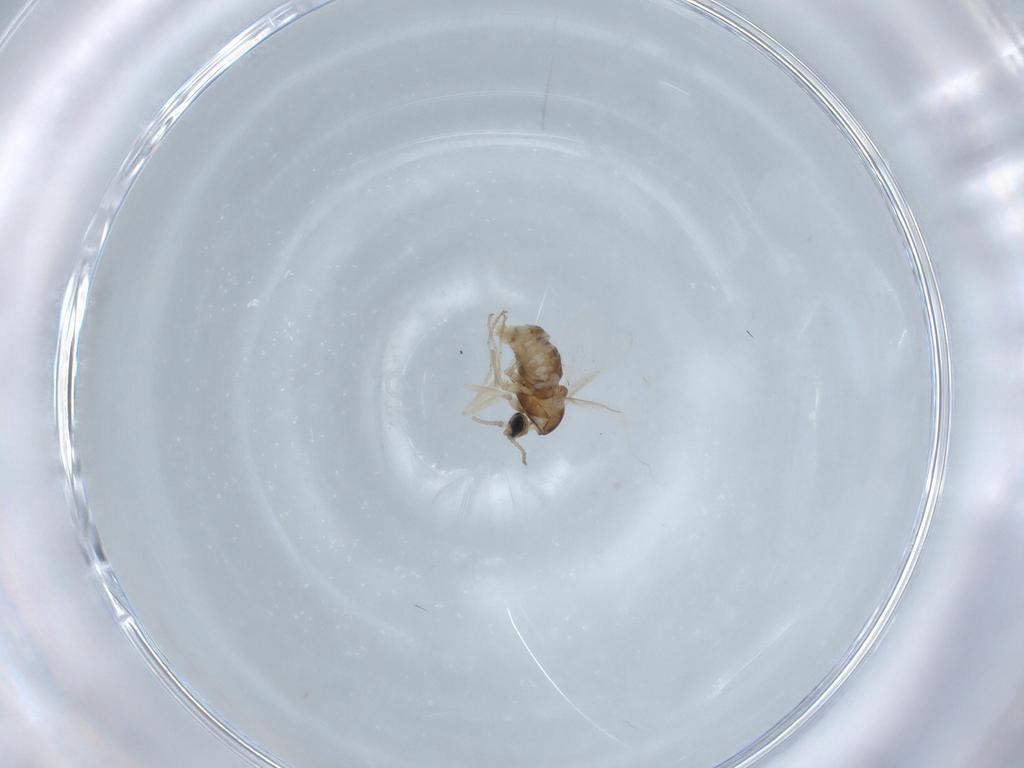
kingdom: Animalia
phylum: Arthropoda
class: Insecta
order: Diptera
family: Cecidomyiidae
